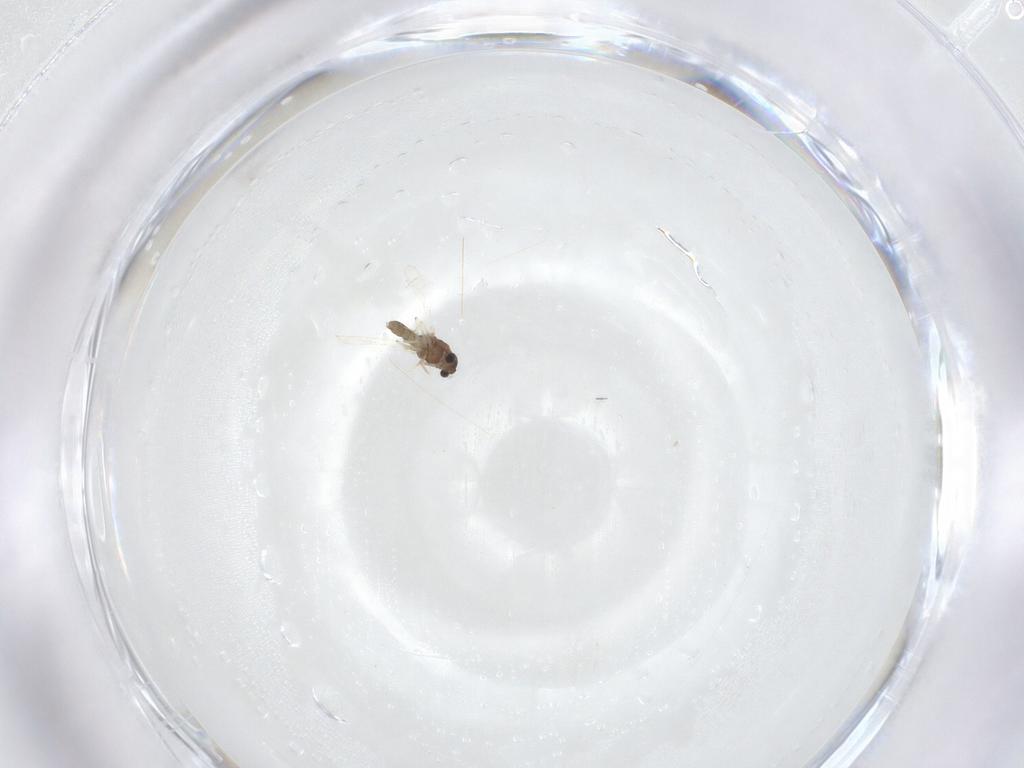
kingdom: Animalia
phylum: Arthropoda
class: Insecta
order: Diptera
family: Chironomidae
